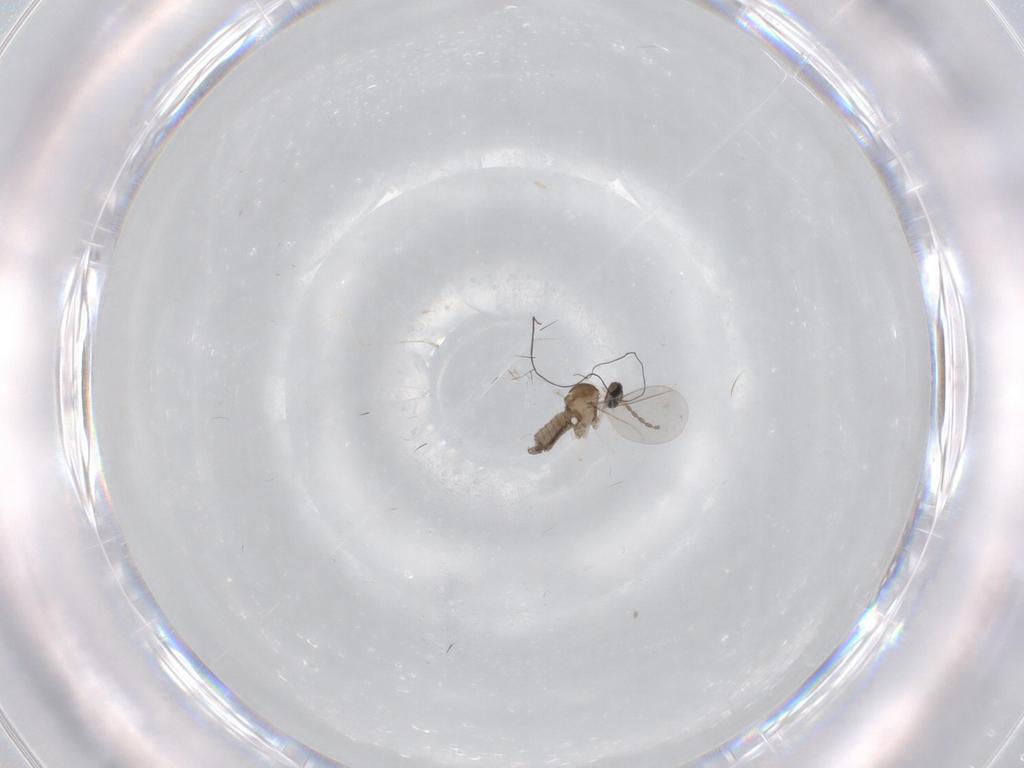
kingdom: Animalia
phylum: Arthropoda
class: Insecta
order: Diptera
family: Cecidomyiidae
